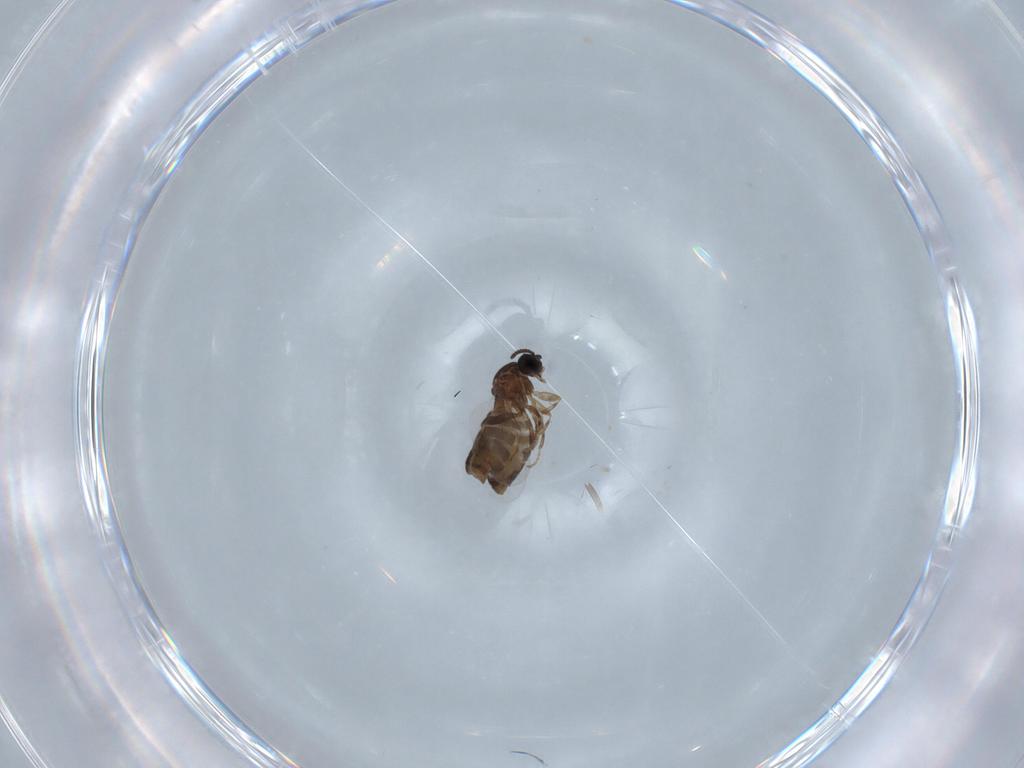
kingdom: Animalia
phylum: Arthropoda
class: Insecta
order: Diptera
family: Scatopsidae
